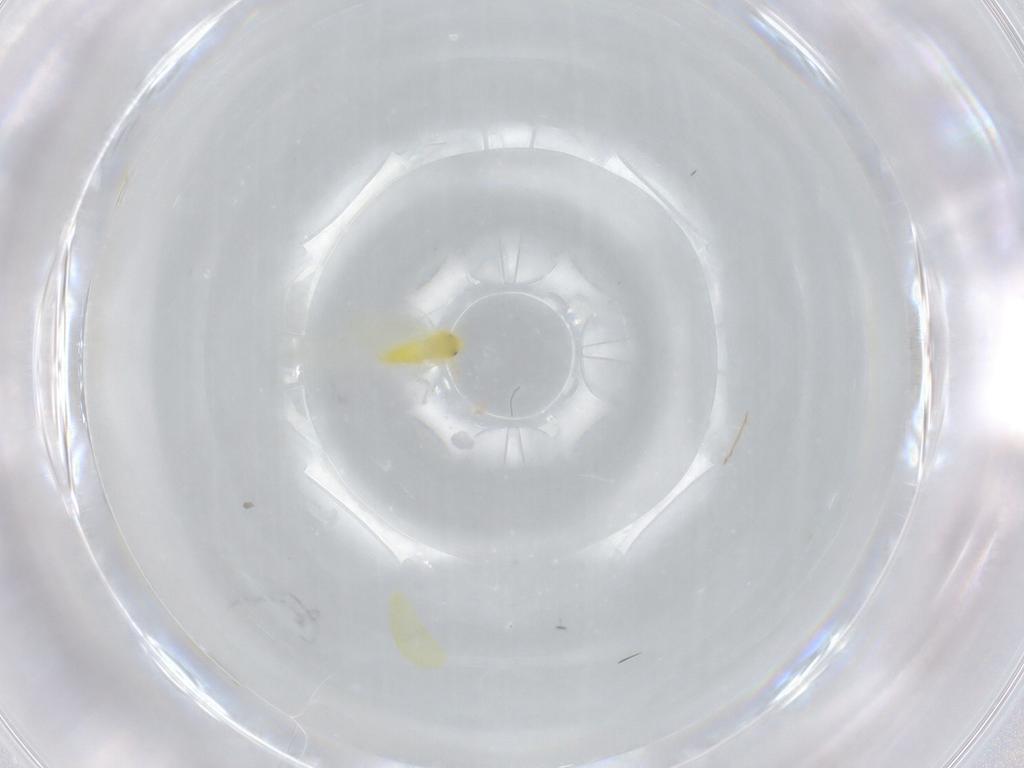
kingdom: Animalia
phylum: Arthropoda
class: Insecta
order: Hemiptera
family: Aleyrodidae
